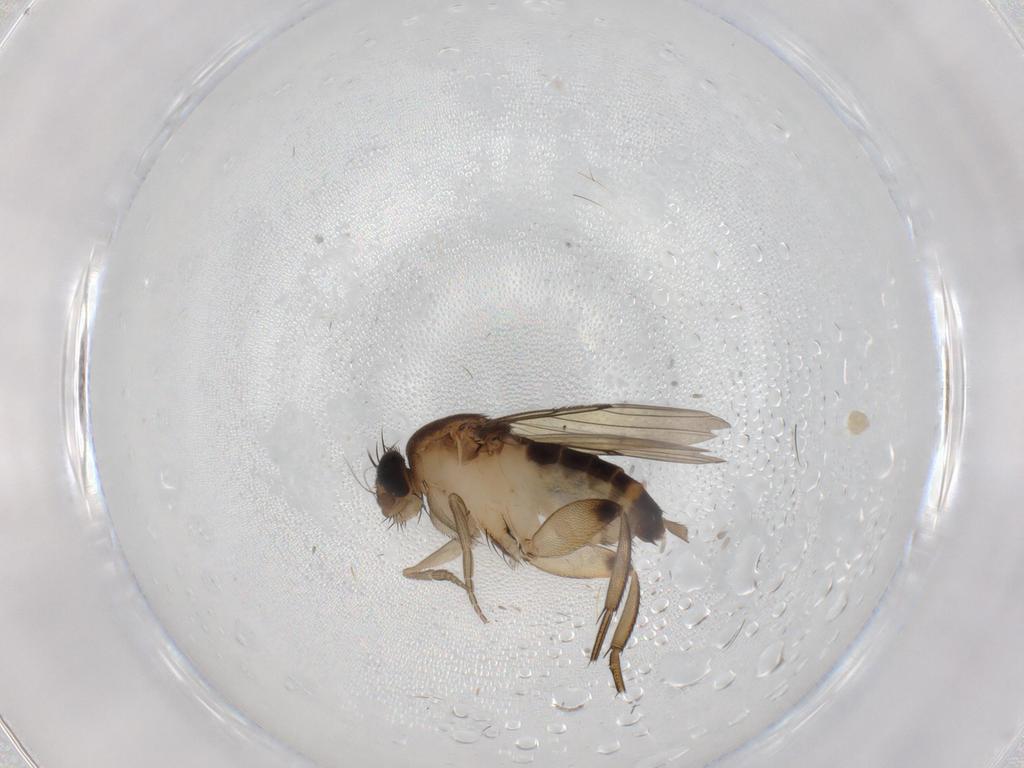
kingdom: Animalia
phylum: Arthropoda
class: Insecta
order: Diptera
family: Phoridae
